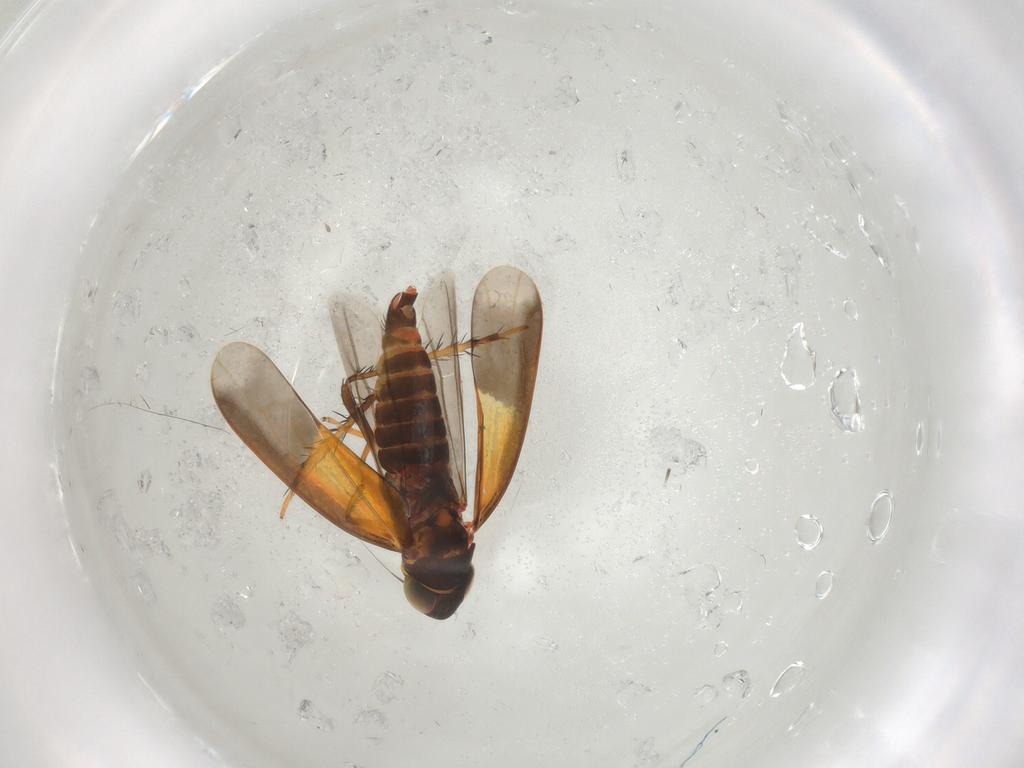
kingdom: Animalia
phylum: Arthropoda
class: Insecta
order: Hemiptera
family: Cicadellidae
